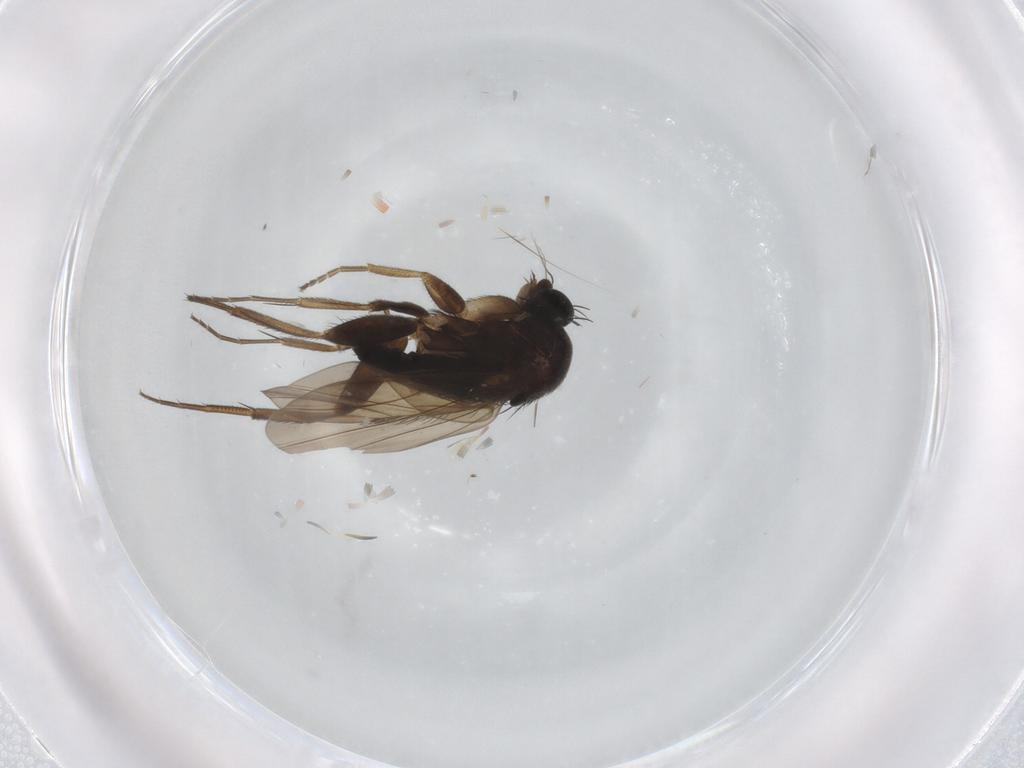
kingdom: Animalia
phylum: Arthropoda
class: Insecta
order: Diptera
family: Phoridae
